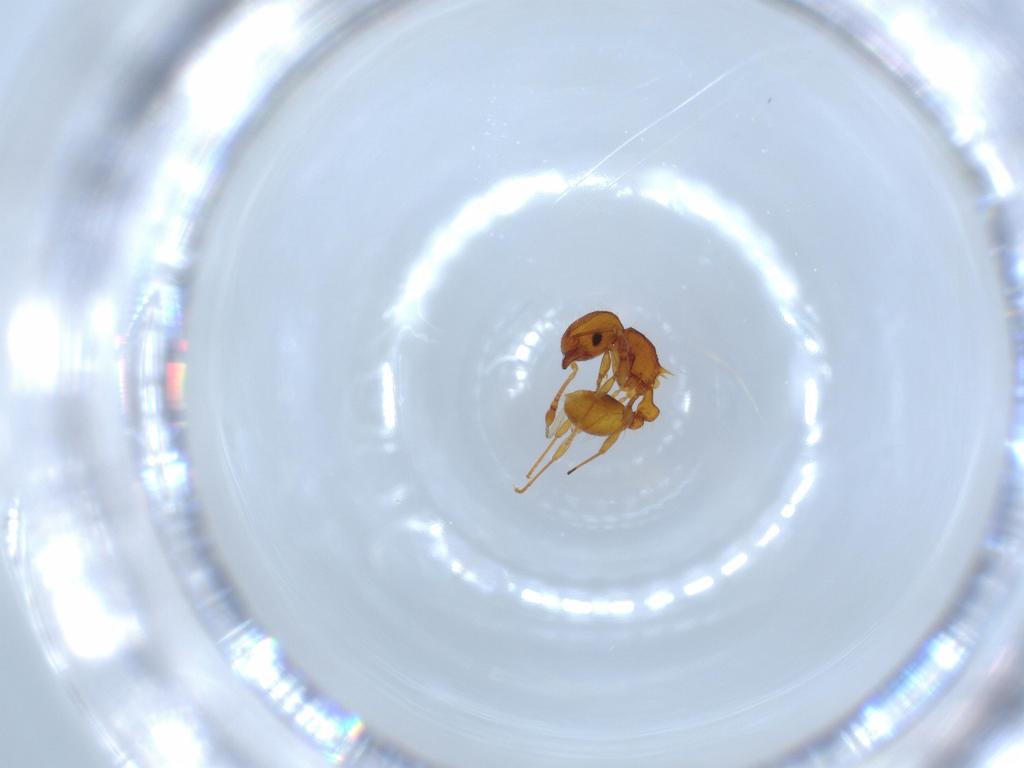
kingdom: Animalia
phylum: Arthropoda
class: Insecta
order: Hymenoptera
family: Formicidae
